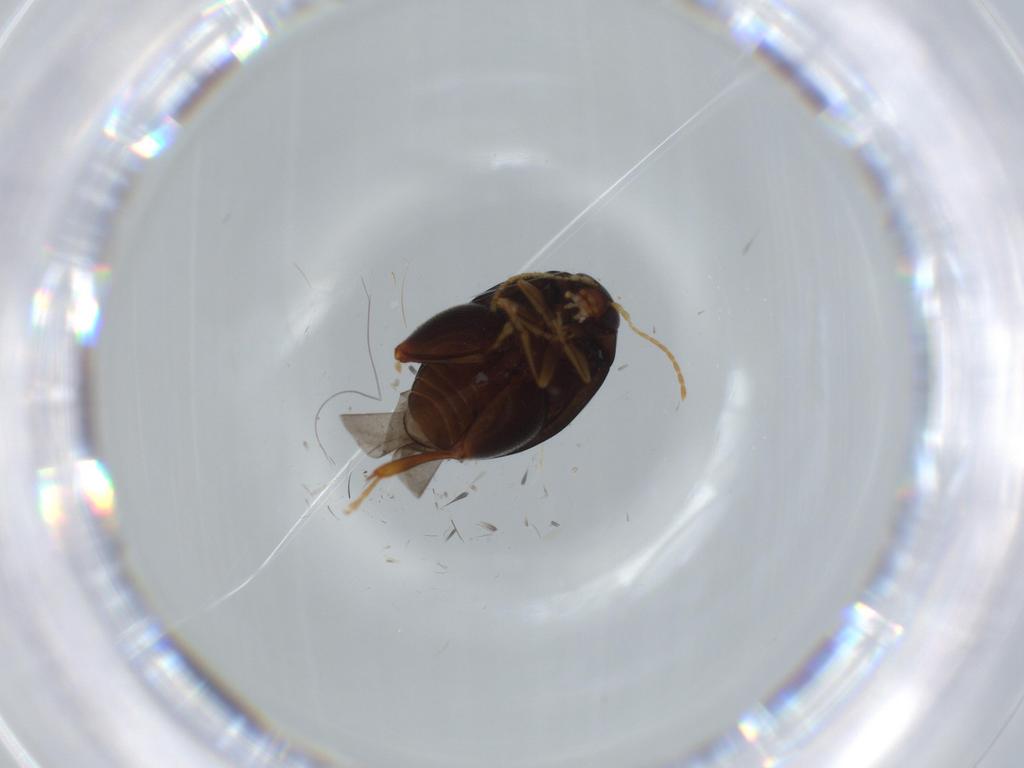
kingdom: Animalia
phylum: Arthropoda
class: Insecta
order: Coleoptera
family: Chrysomelidae
